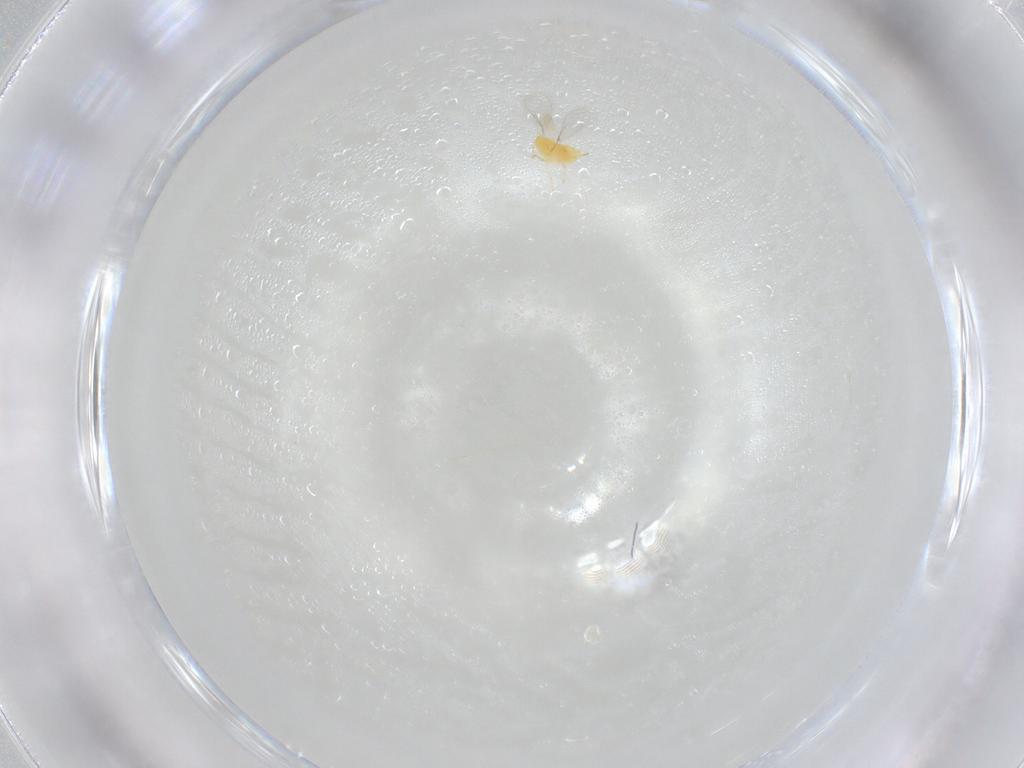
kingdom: Animalia
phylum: Arthropoda
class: Insecta
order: Hymenoptera
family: Aphelinidae
